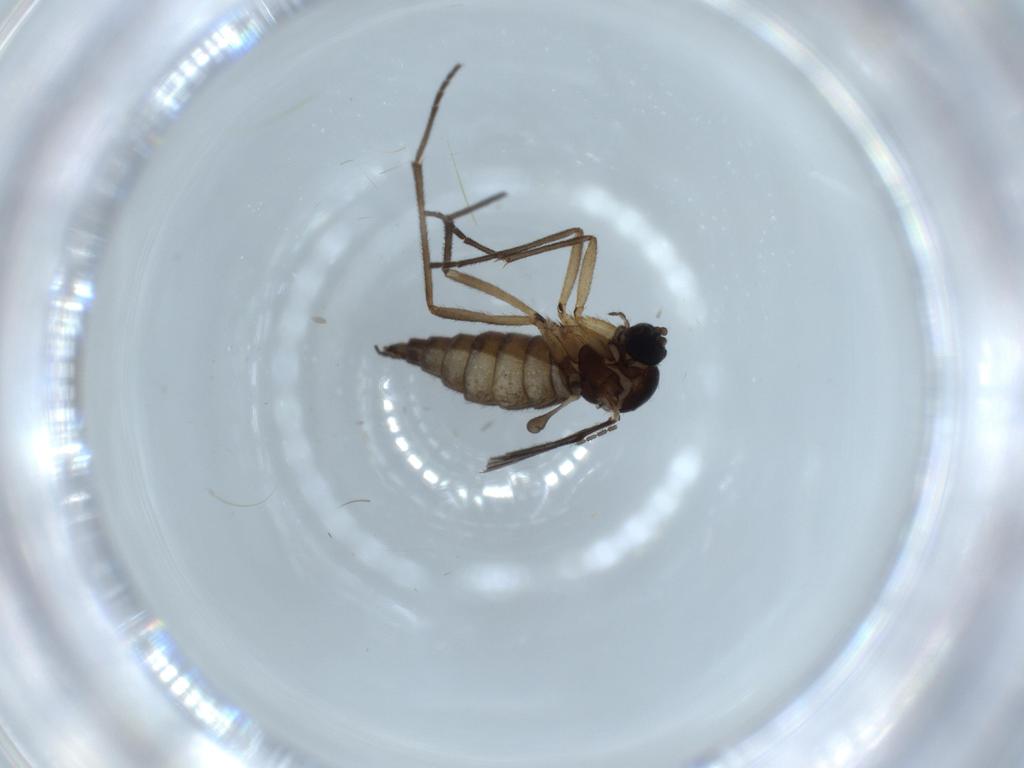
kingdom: Animalia
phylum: Arthropoda
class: Insecta
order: Diptera
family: Sciaridae
